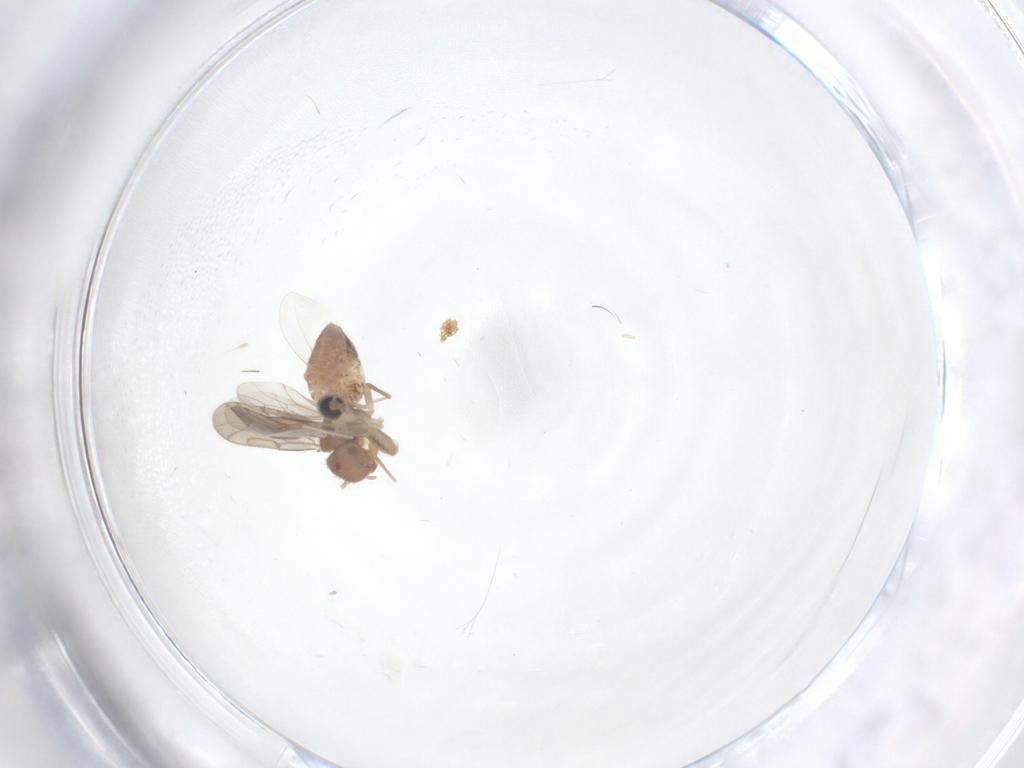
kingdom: Animalia
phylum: Arthropoda
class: Insecta
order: Psocodea
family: Ectopsocidae
